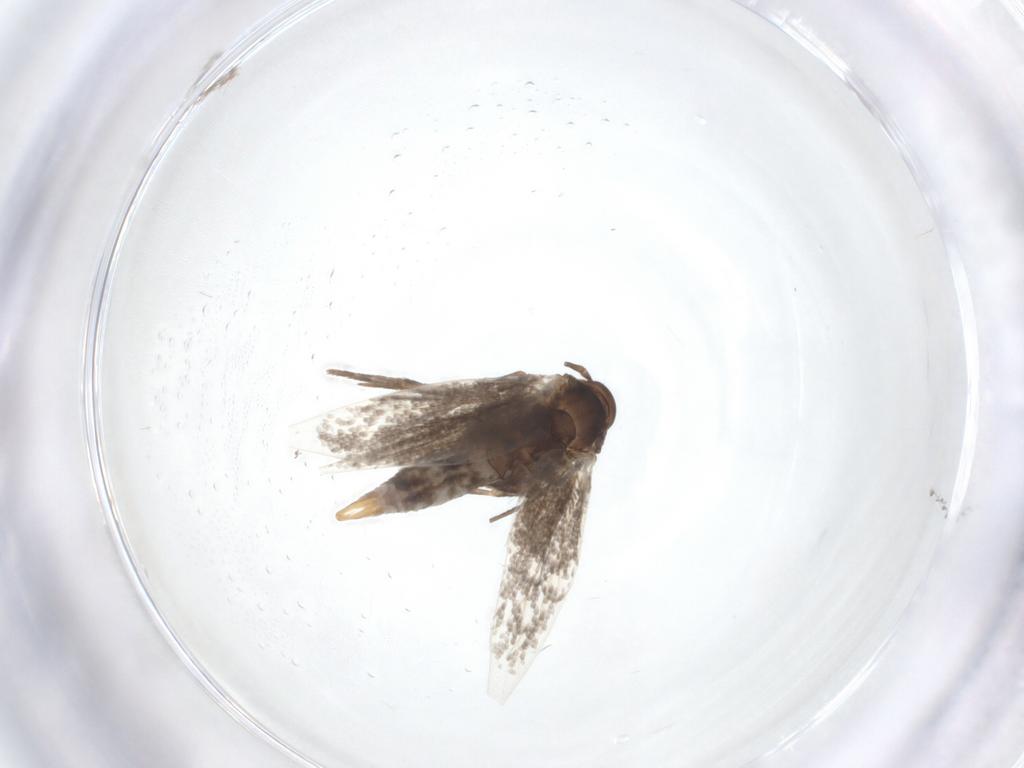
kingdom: Animalia
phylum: Arthropoda
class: Insecta
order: Lepidoptera
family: Elachistidae
